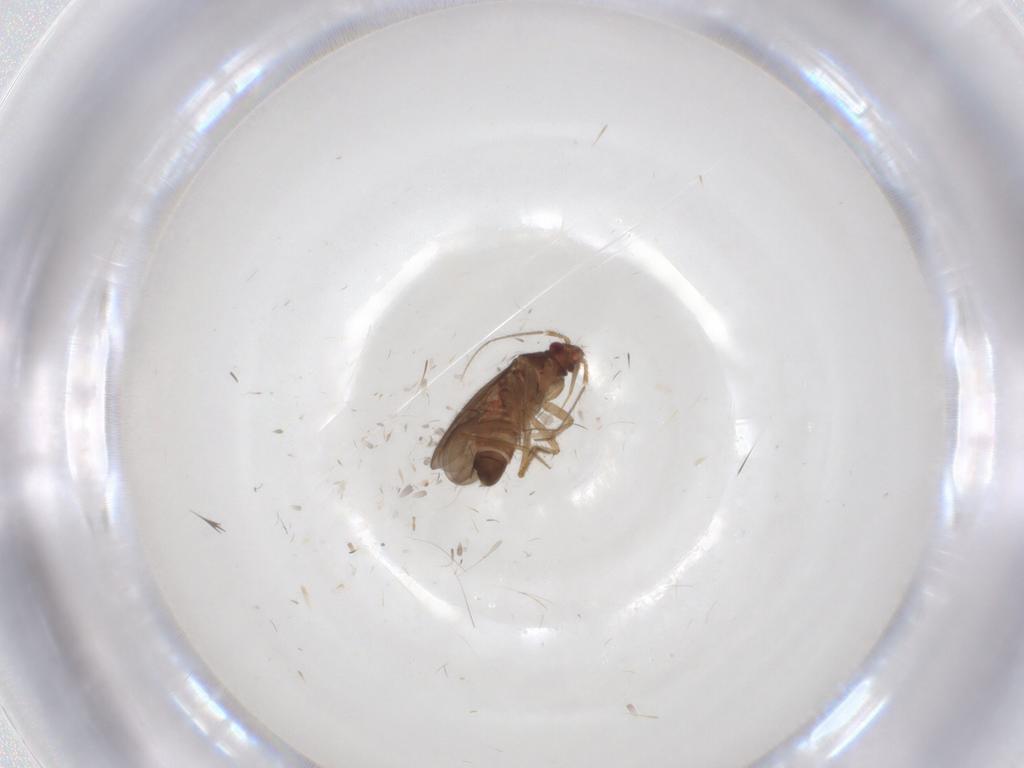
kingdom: Animalia
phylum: Arthropoda
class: Insecta
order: Hemiptera
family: Ceratocombidae
